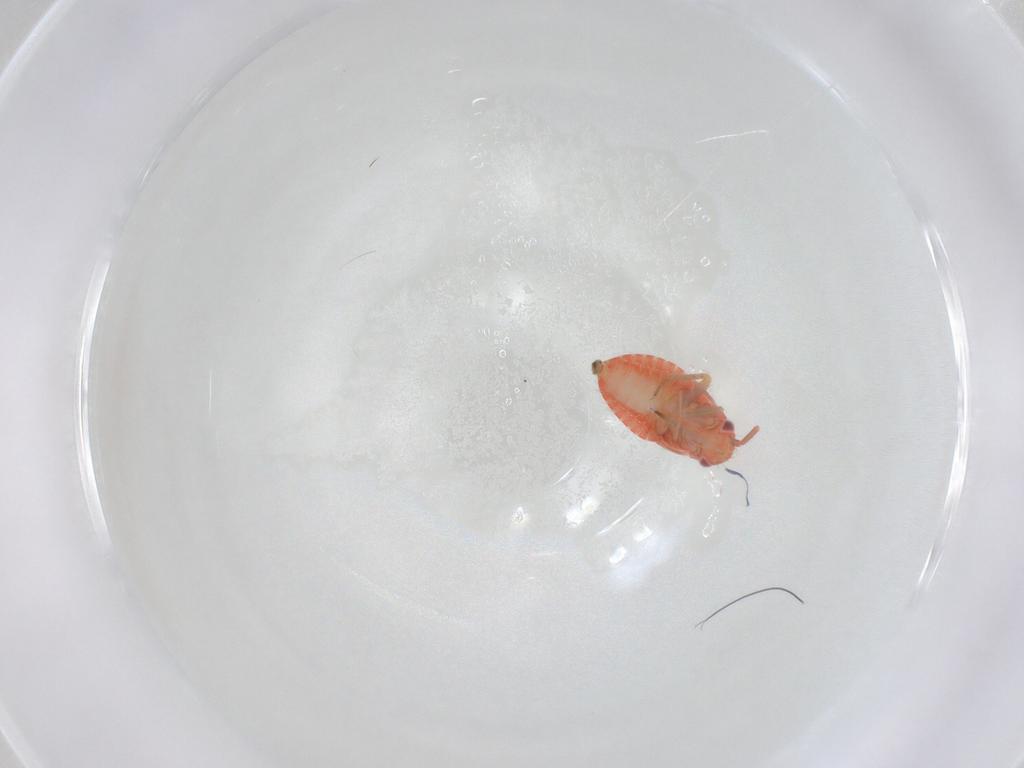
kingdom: Animalia
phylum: Arthropoda
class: Insecta
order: Hemiptera
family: Miridae
